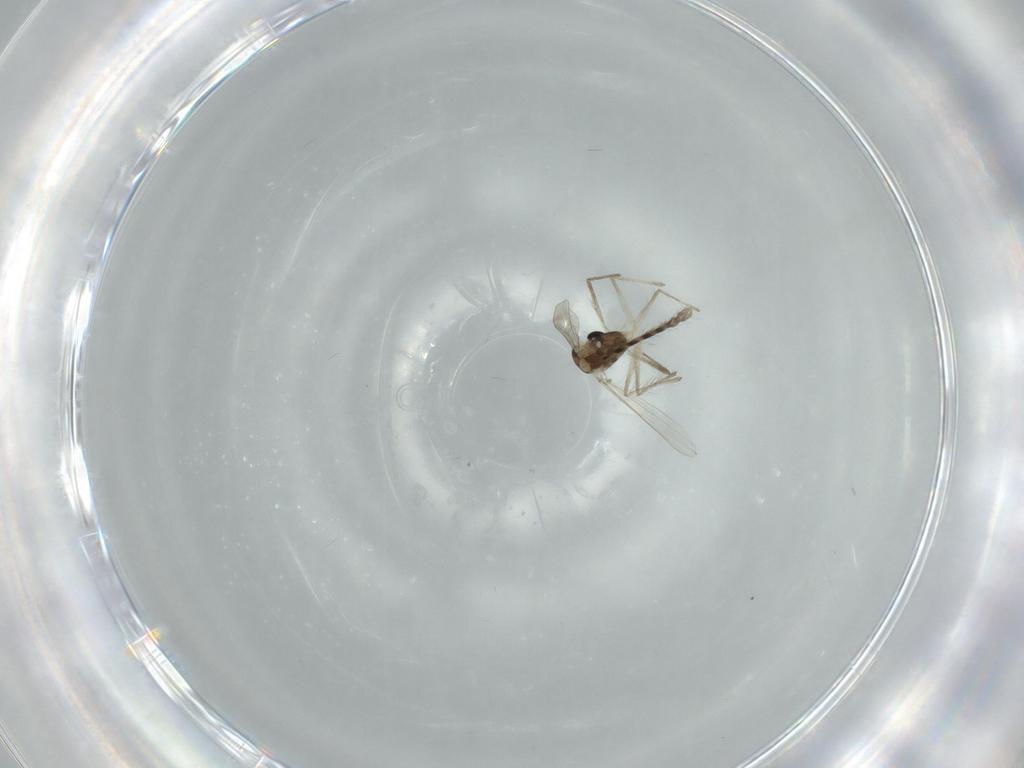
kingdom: Animalia
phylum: Arthropoda
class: Insecta
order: Diptera
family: Chironomidae
